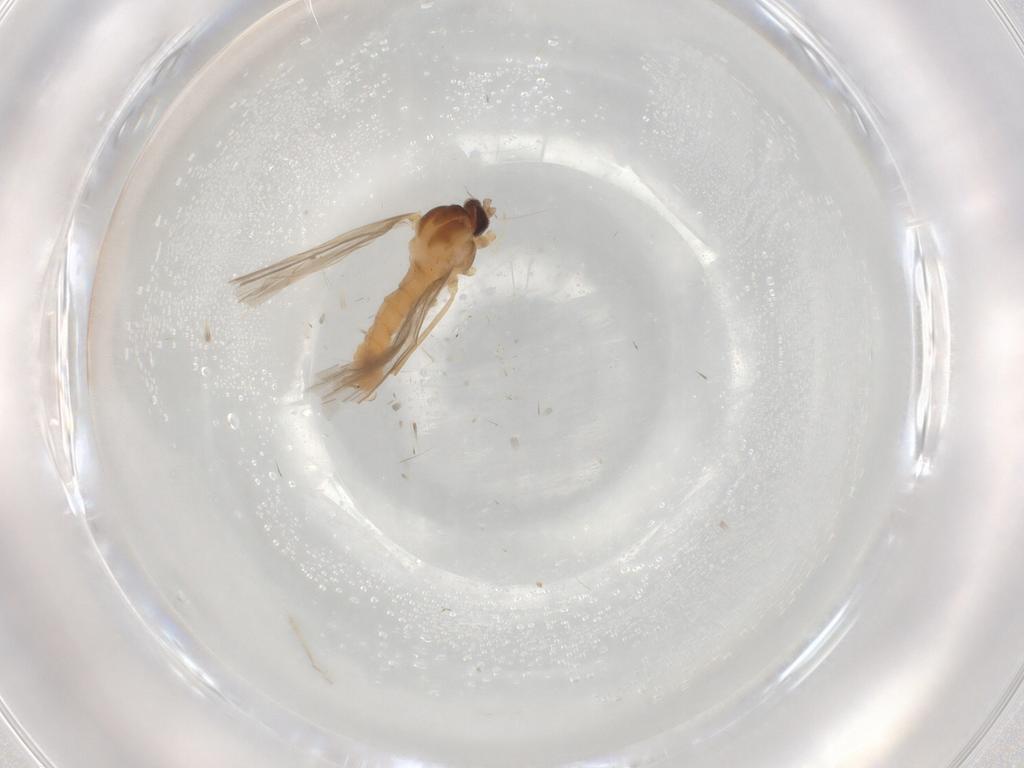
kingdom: Animalia
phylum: Arthropoda
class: Insecta
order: Diptera
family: Cecidomyiidae
